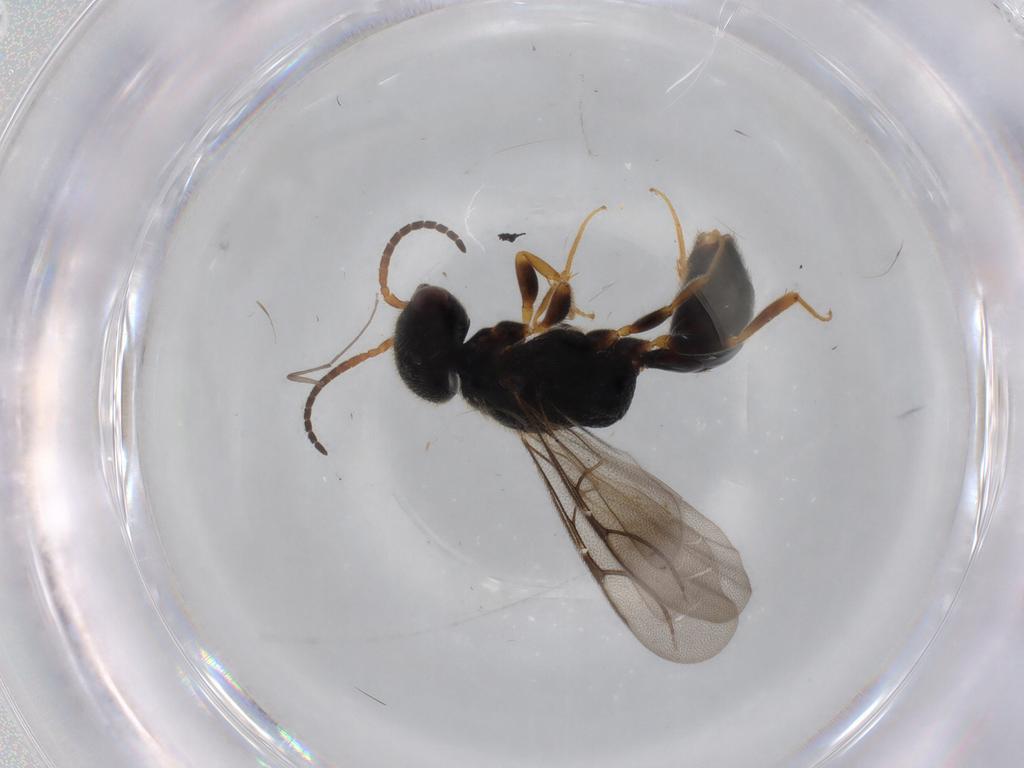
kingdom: Animalia
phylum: Arthropoda
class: Insecta
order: Hymenoptera
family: Bethylidae
